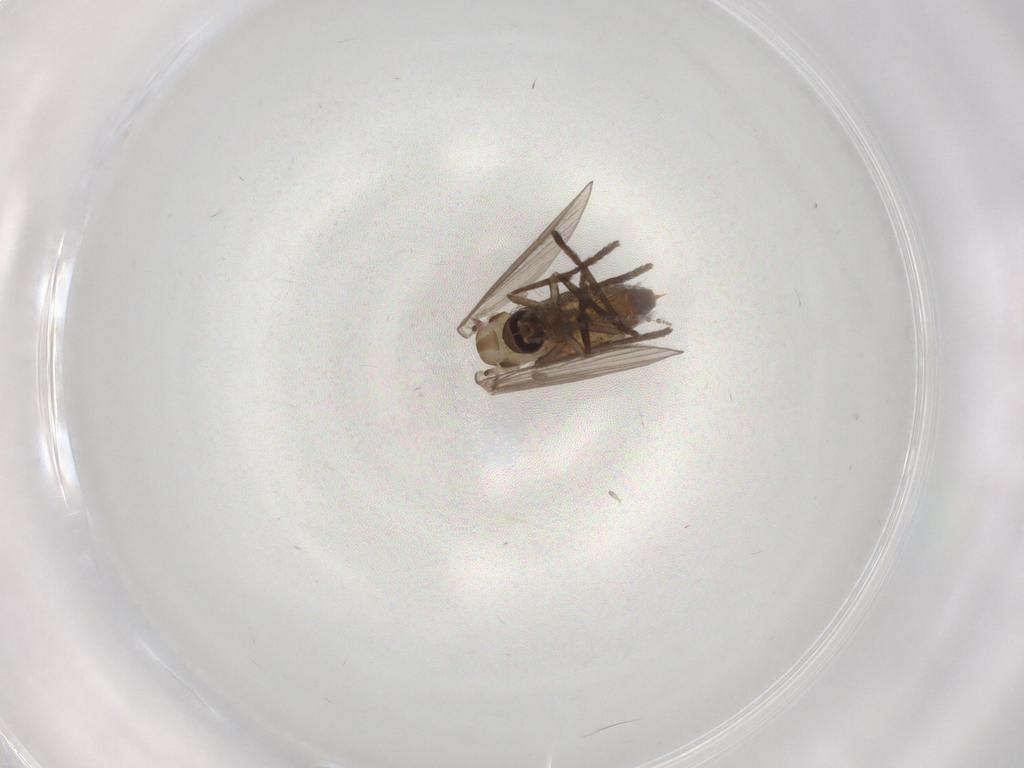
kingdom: Animalia
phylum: Arthropoda
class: Insecta
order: Diptera
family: Psychodidae
